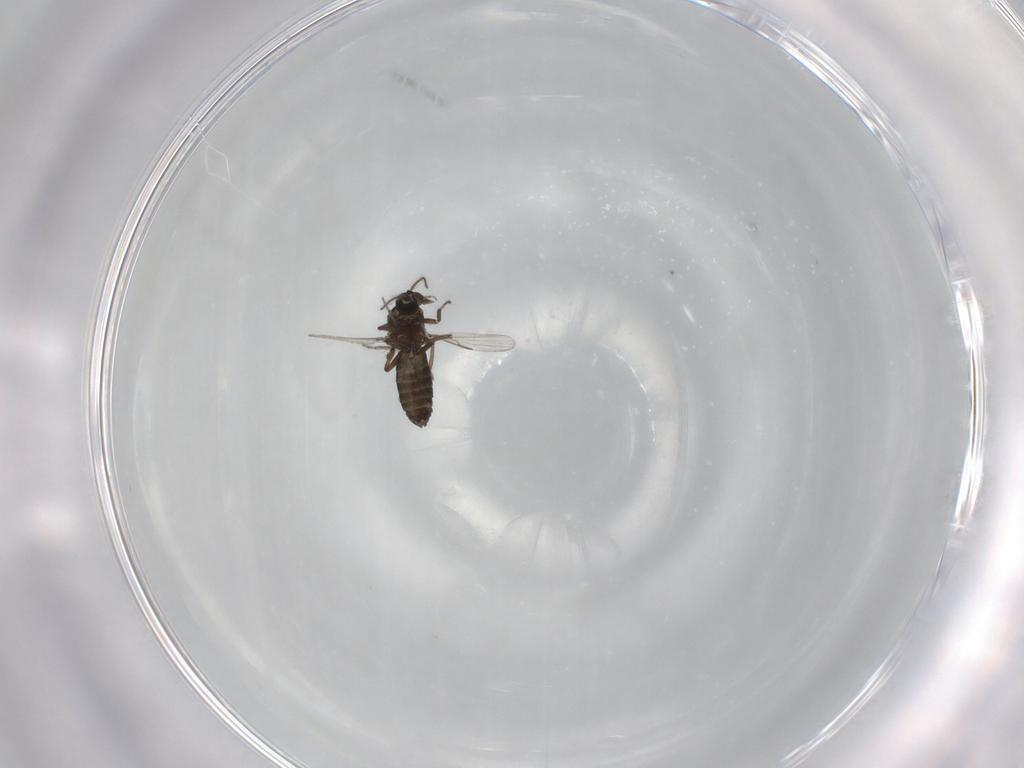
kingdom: Animalia
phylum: Arthropoda
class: Insecta
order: Diptera
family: Ceratopogonidae
